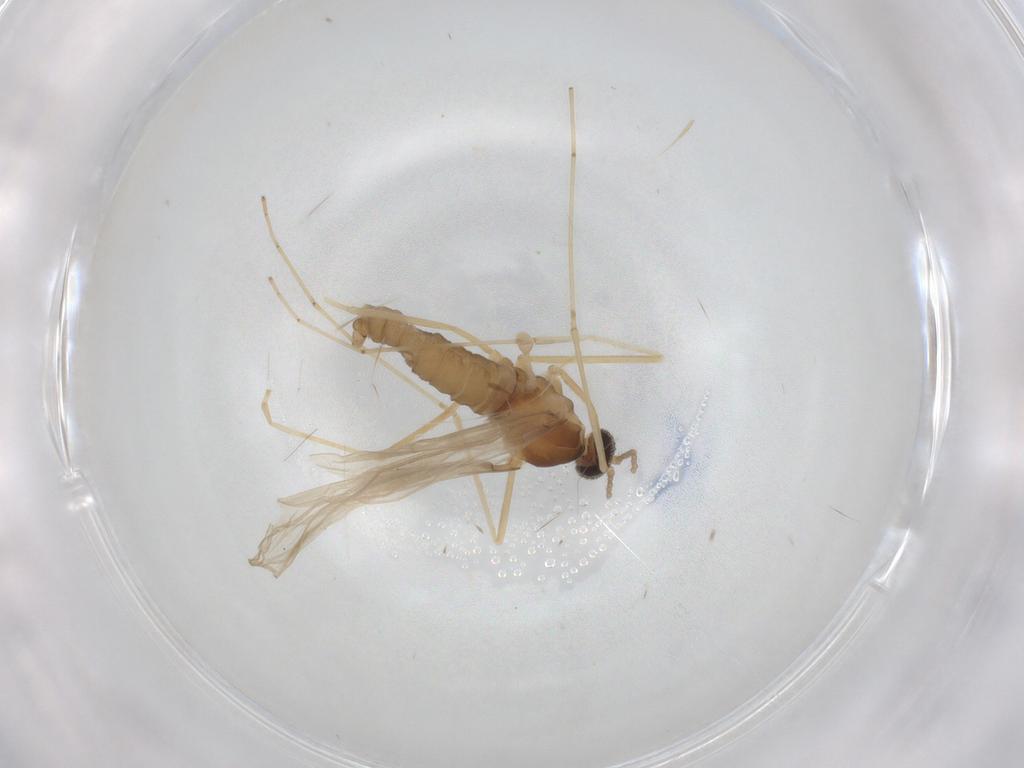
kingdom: Animalia
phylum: Arthropoda
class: Insecta
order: Diptera
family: Cecidomyiidae
